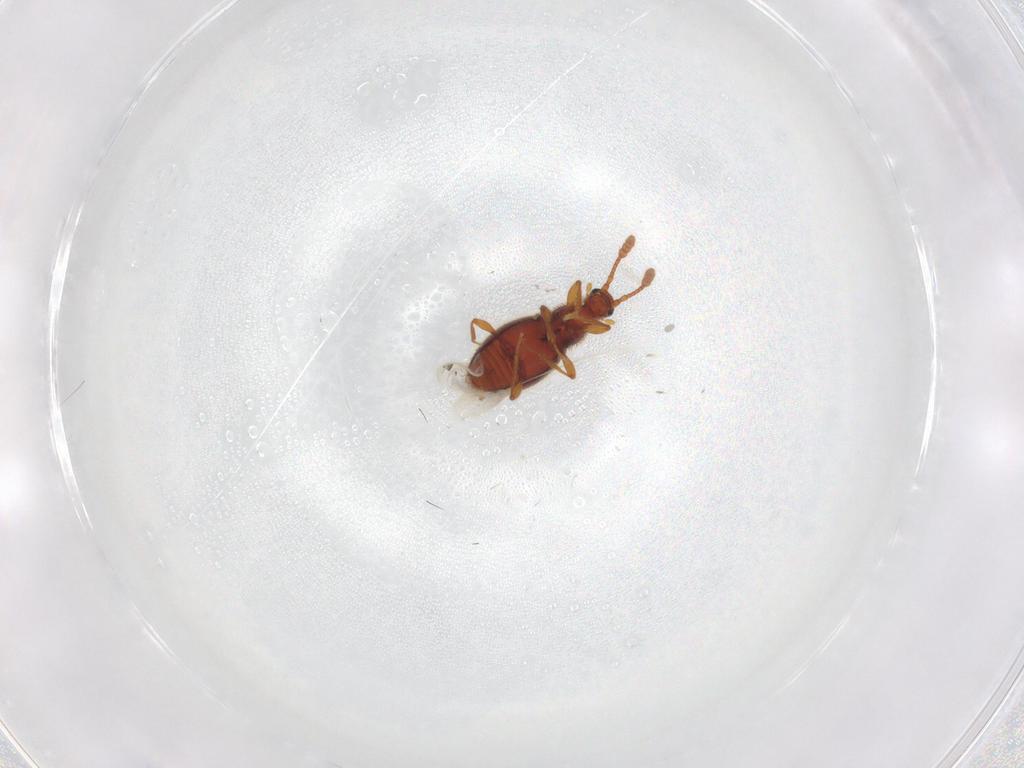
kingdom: Animalia
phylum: Arthropoda
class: Insecta
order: Coleoptera
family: Staphylinidae
